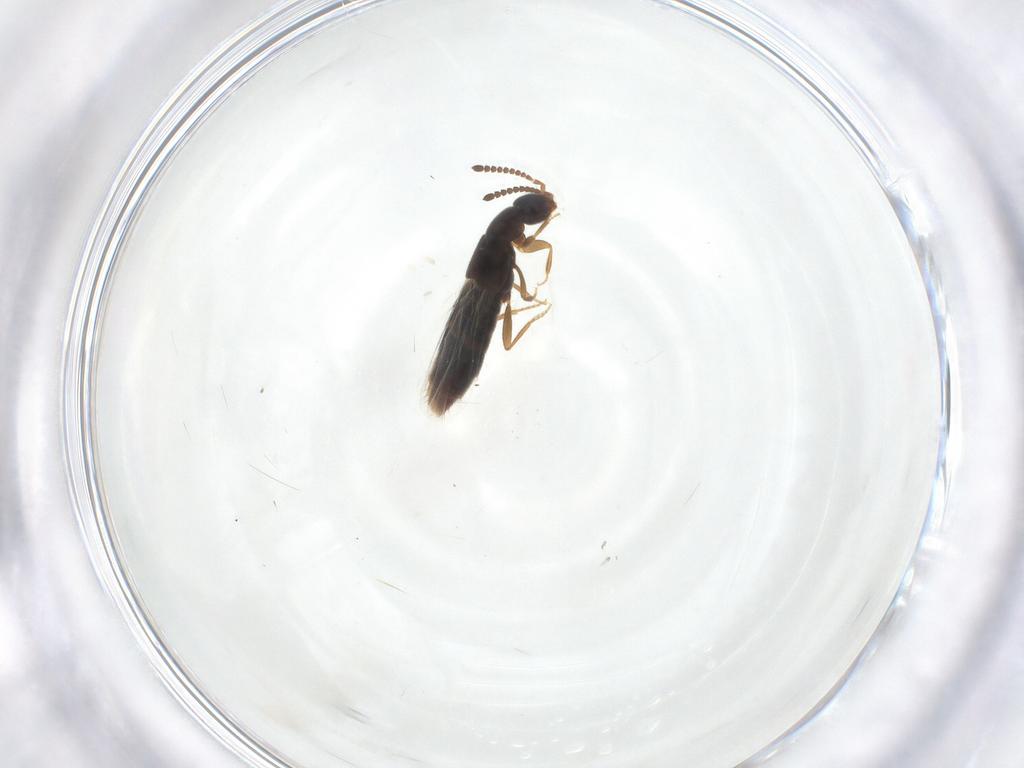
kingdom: Animalia
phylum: Arthropoda
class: Insecta
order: Coleoptera
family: Staphylinidae
